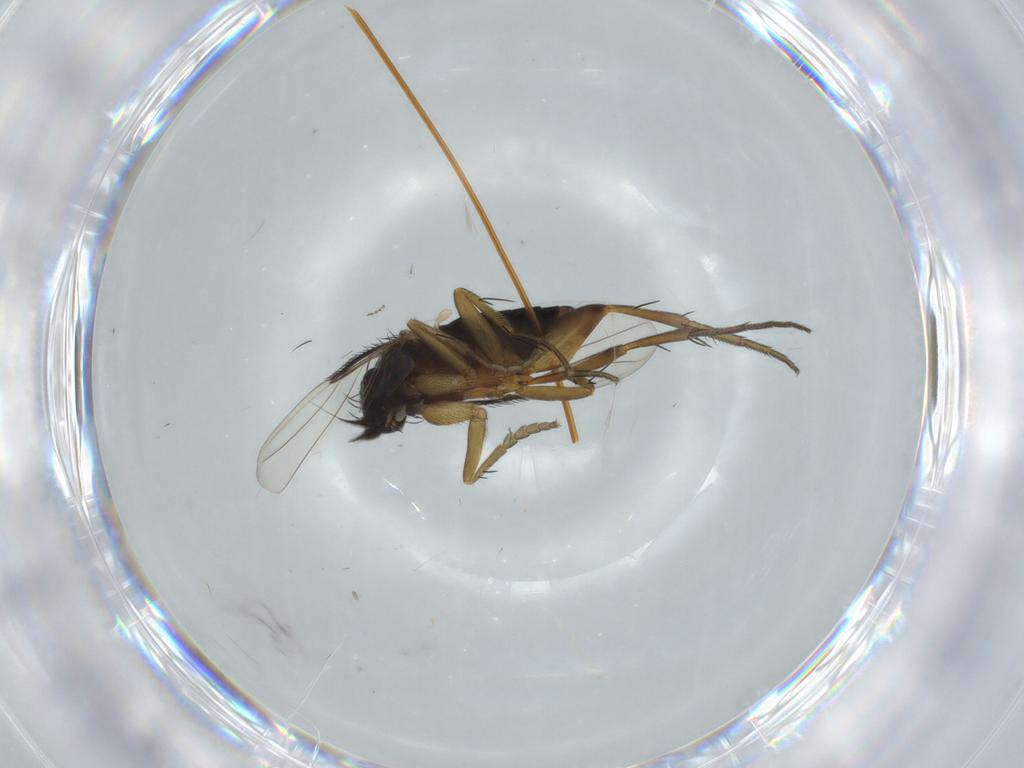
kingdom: Animalia
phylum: Arthropoda
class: Insecta
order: Diptera
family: Phoridae
